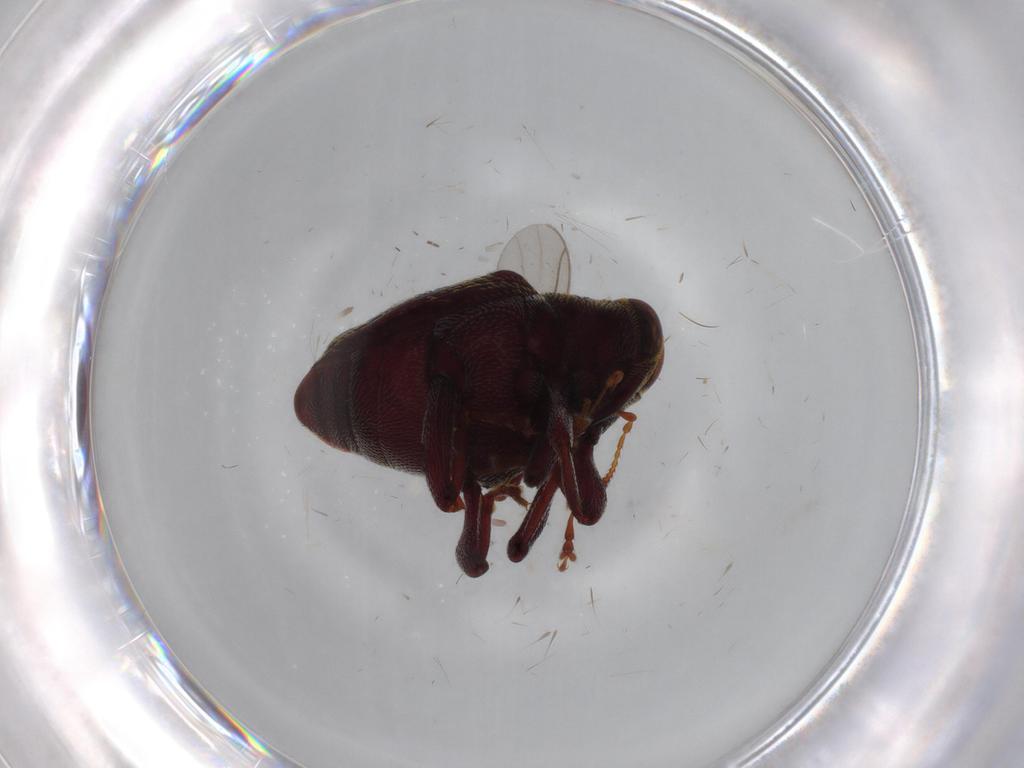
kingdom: Animalia
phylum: Arthropoda
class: Insecta
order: Coleoptera
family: Curculionidae
